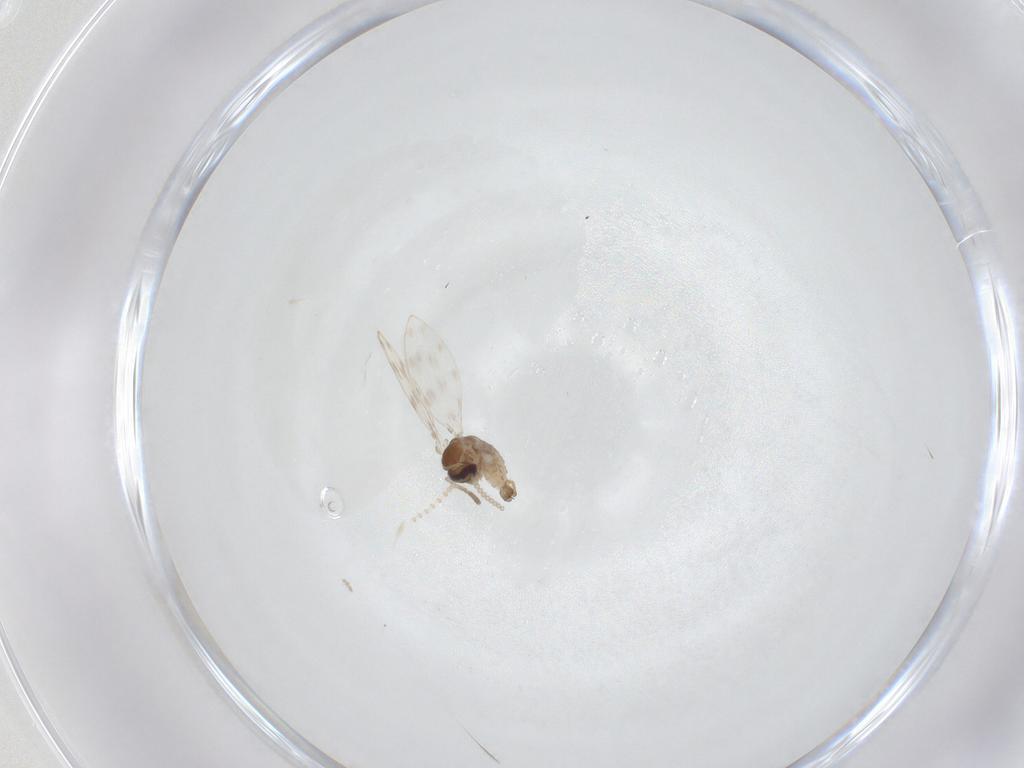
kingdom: Animalia
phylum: Arthropoda
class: Insecta
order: Diptera
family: Psychodidae
